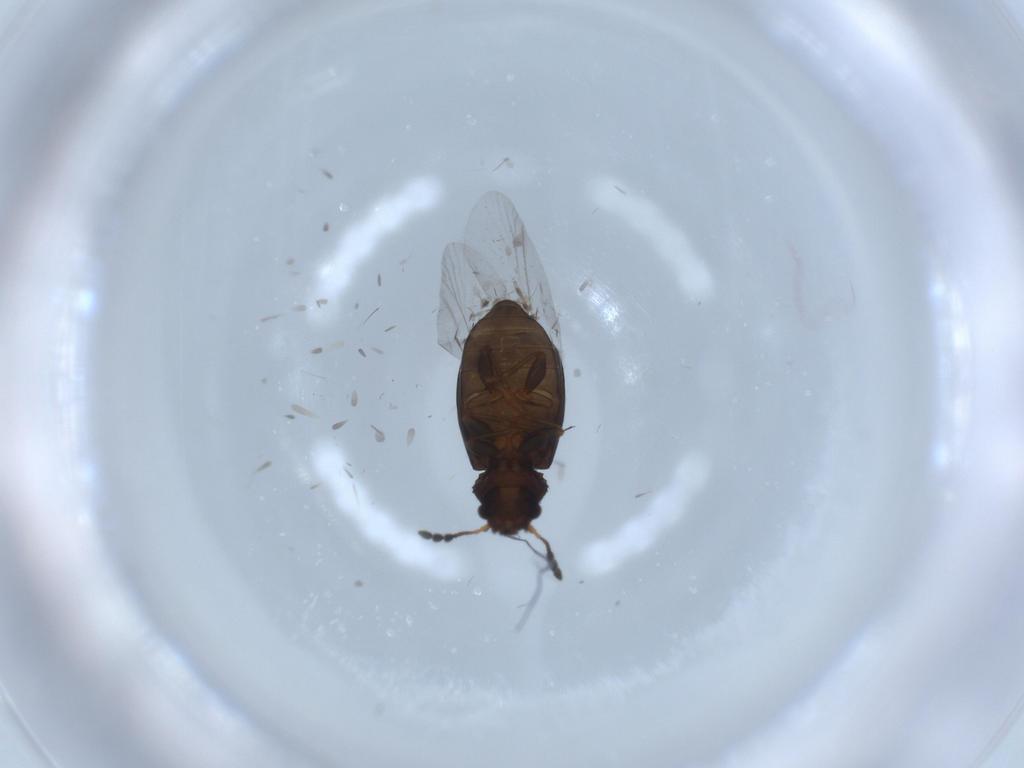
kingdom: Animalia
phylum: Arthropoda
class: Insecta
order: Coleoptera
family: Salpingidae
